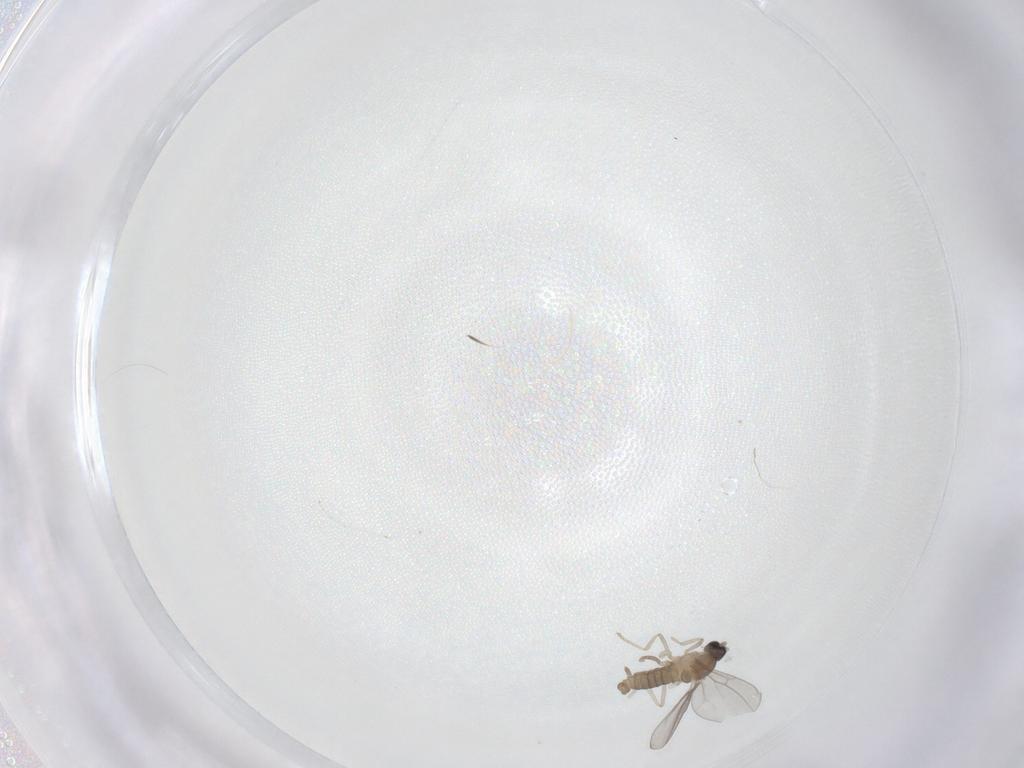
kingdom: Animalia
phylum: Arthropoda
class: Insecta
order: Diptera
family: Cecidomyiidae
